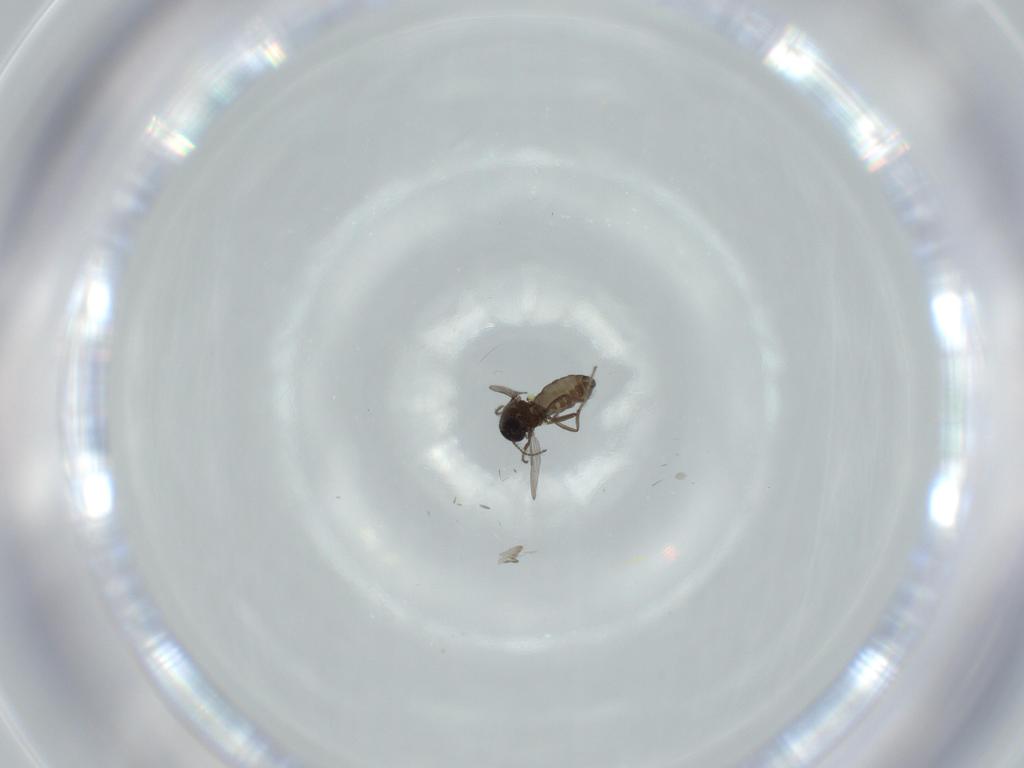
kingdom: Animalia
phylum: Arthropoda
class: Insecta
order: Diptera
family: Ceratopogonidae
